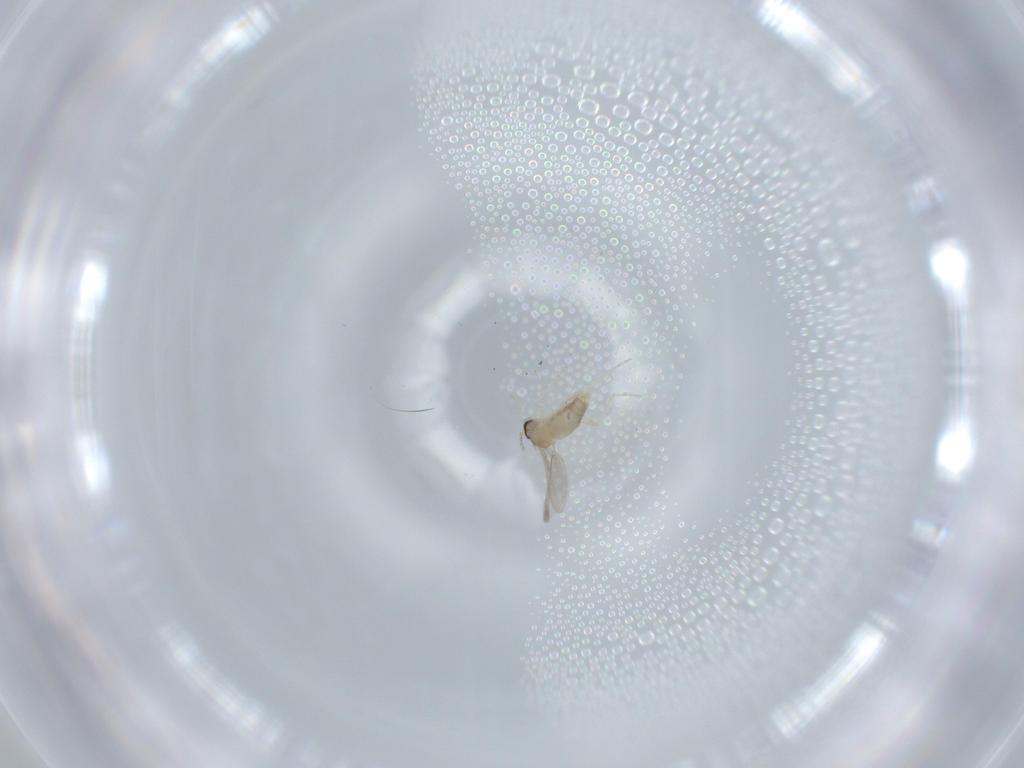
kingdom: Animalia
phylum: Arthropoda
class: Insecta
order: Diptera
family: Cecidomyiidae
